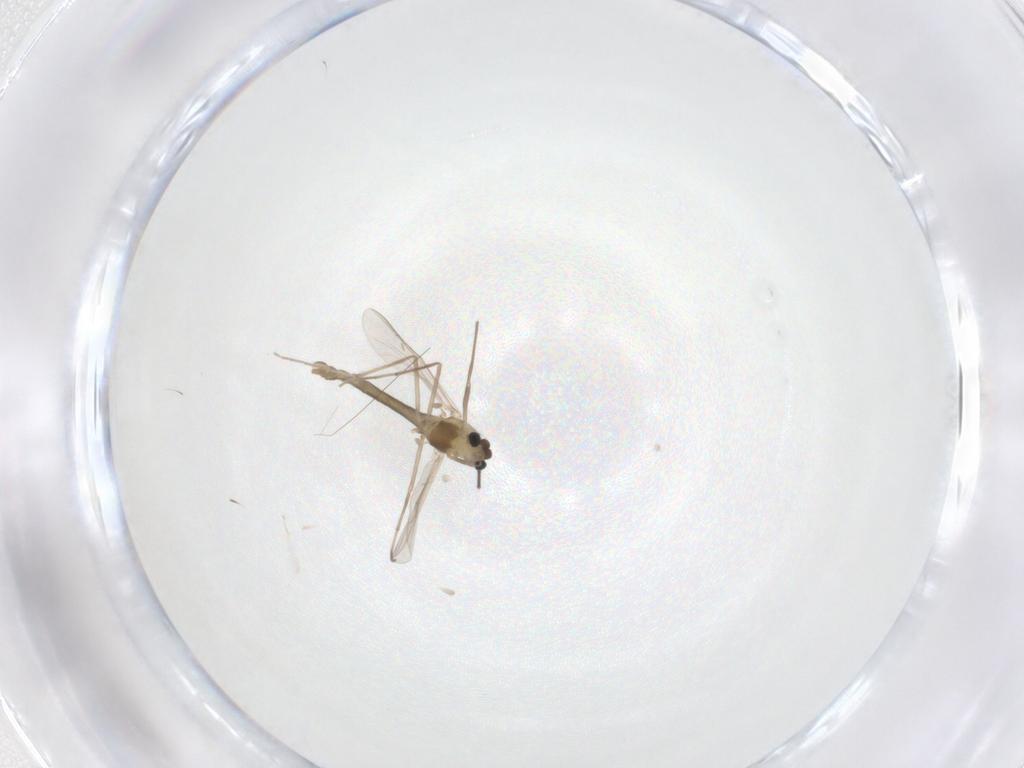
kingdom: Animalia
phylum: Arthropoda
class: Insecta
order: Diptera
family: Chironomidae
